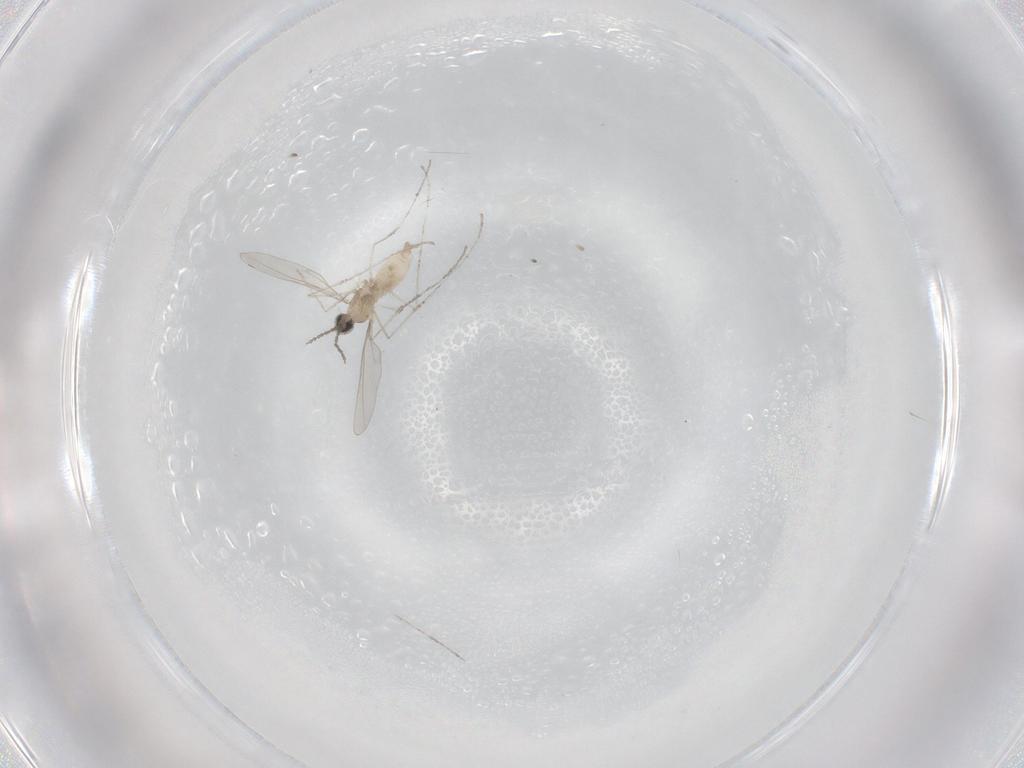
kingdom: Animalia
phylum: Arthropoda
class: Insecta
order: Diptera
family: Cecidomyiidae
